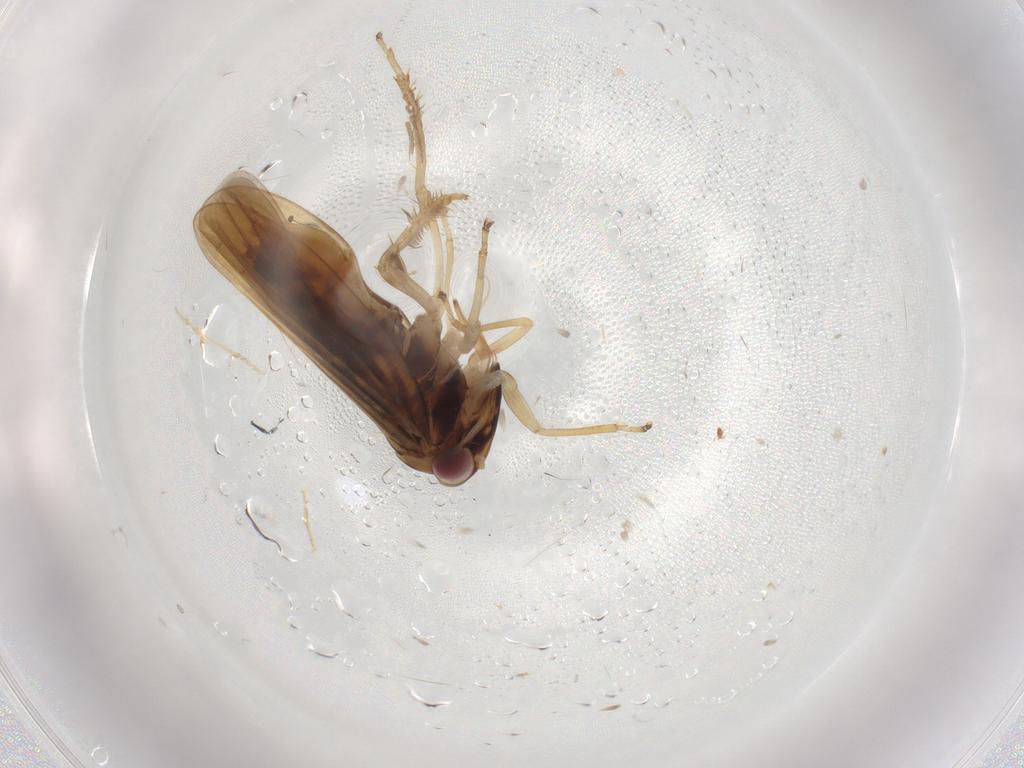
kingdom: Animalia
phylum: Arthropoda
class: Insecta
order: Hemiptera
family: Cicadellidae
